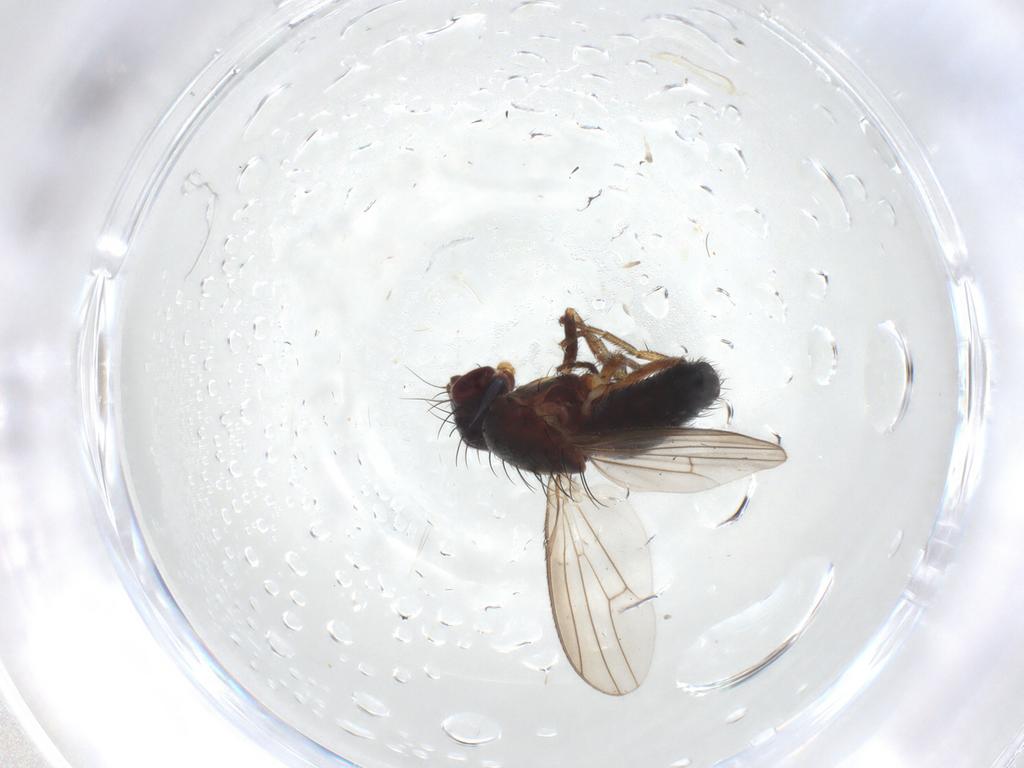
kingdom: Animalia
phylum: Arthropoda
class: Insecta
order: Diptera
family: Heleomyzidae
